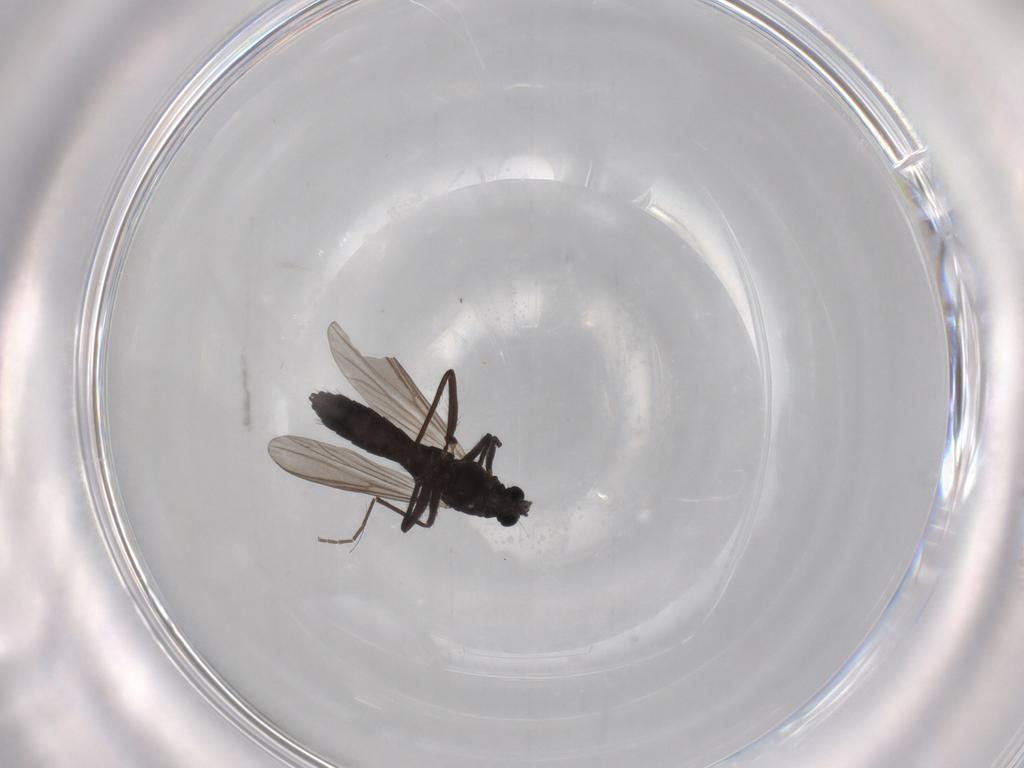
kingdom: Animalia
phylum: Arthropoda
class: Insecta
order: Diptera
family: Chironomidae
